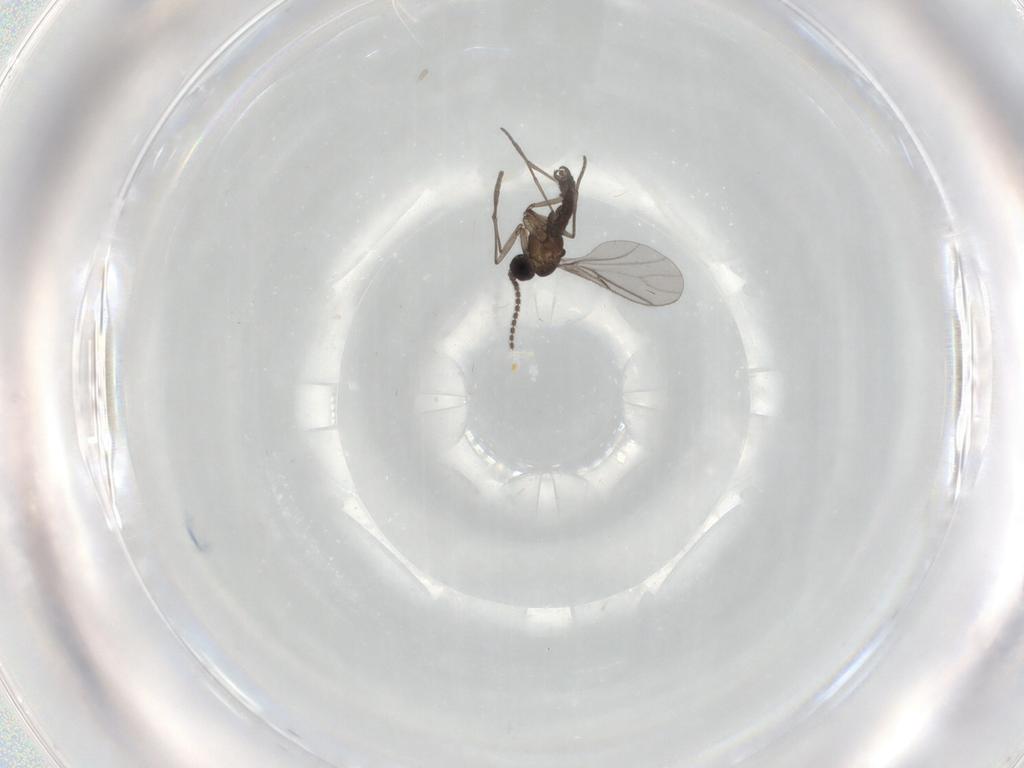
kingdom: Animalia
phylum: Arthropoda
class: Insecta
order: Diptera
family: Sciaridae
